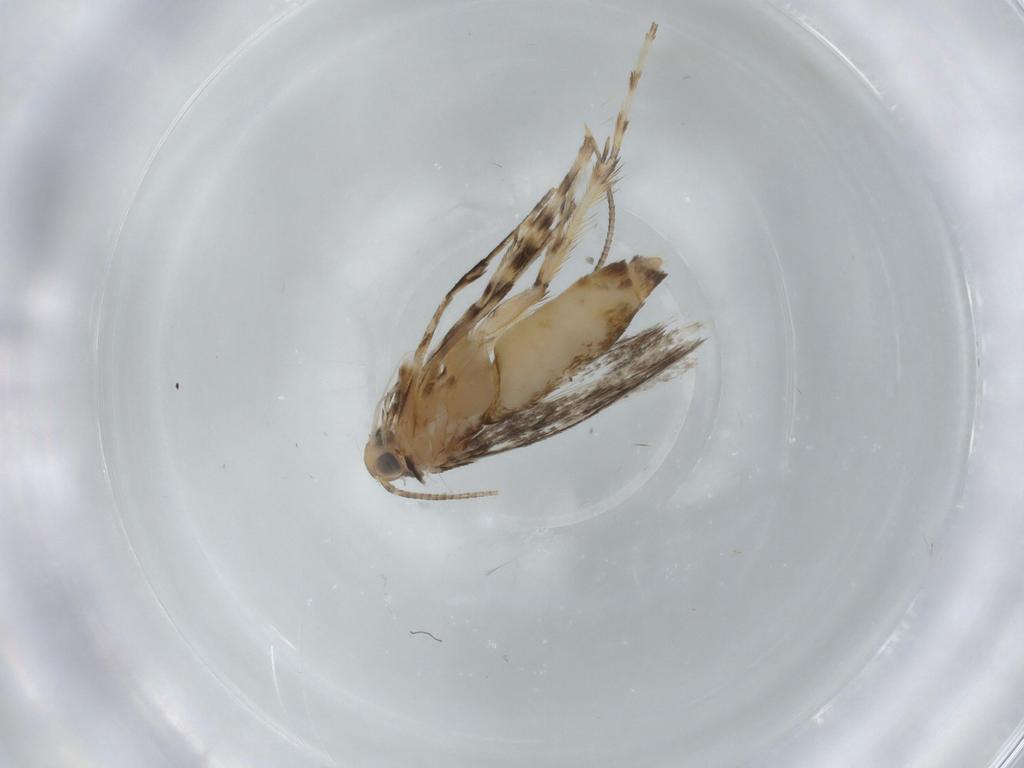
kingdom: Animalia
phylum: Arthropoda
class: Insecta
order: Lepidoptera
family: Gracillariidae
